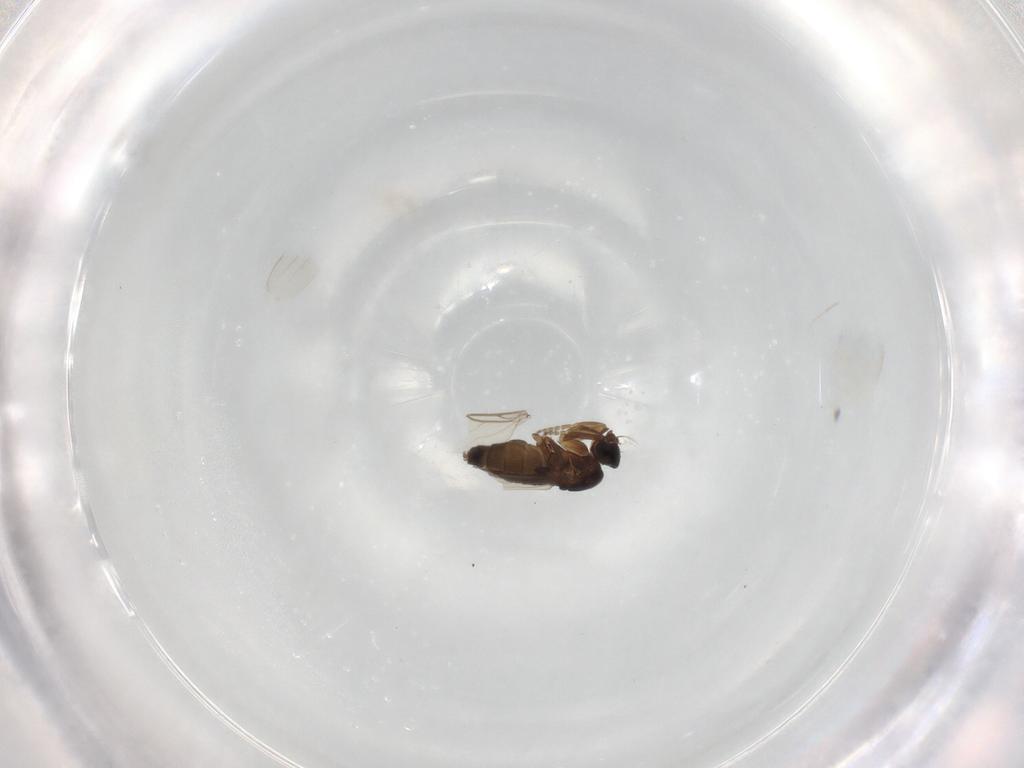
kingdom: Animalia
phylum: Arthropoda
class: Insecta
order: Diptera
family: Phoridae
